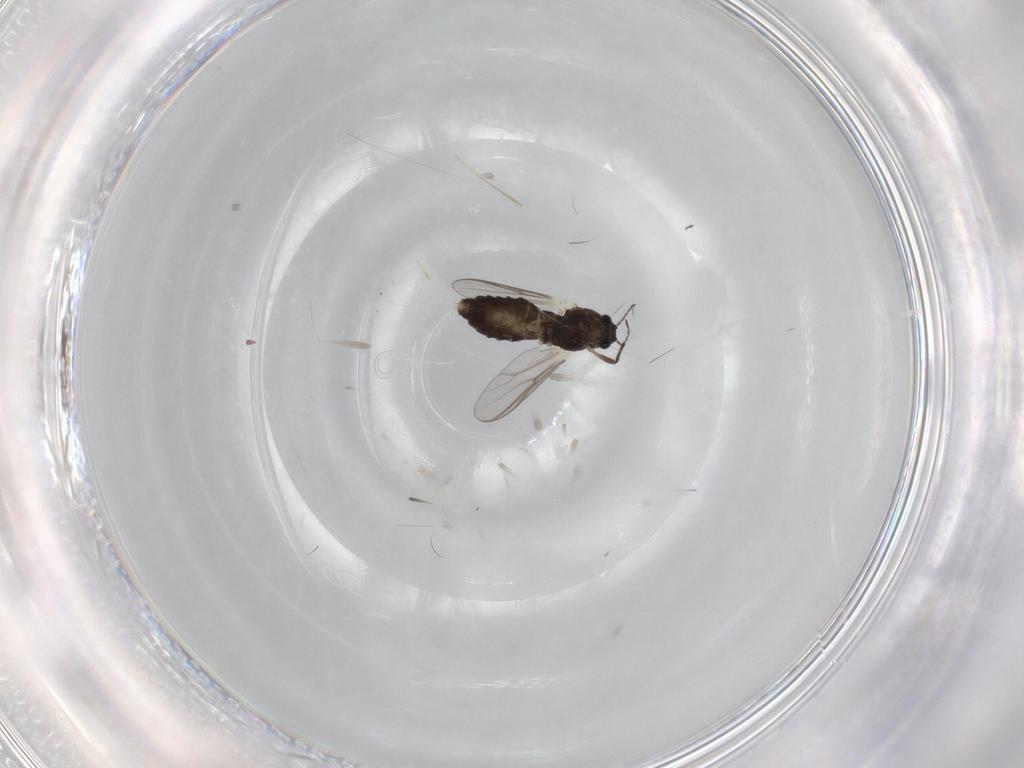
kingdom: Animalia
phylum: Arthropoda
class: Insecta
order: Diptera
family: Chironomidae
